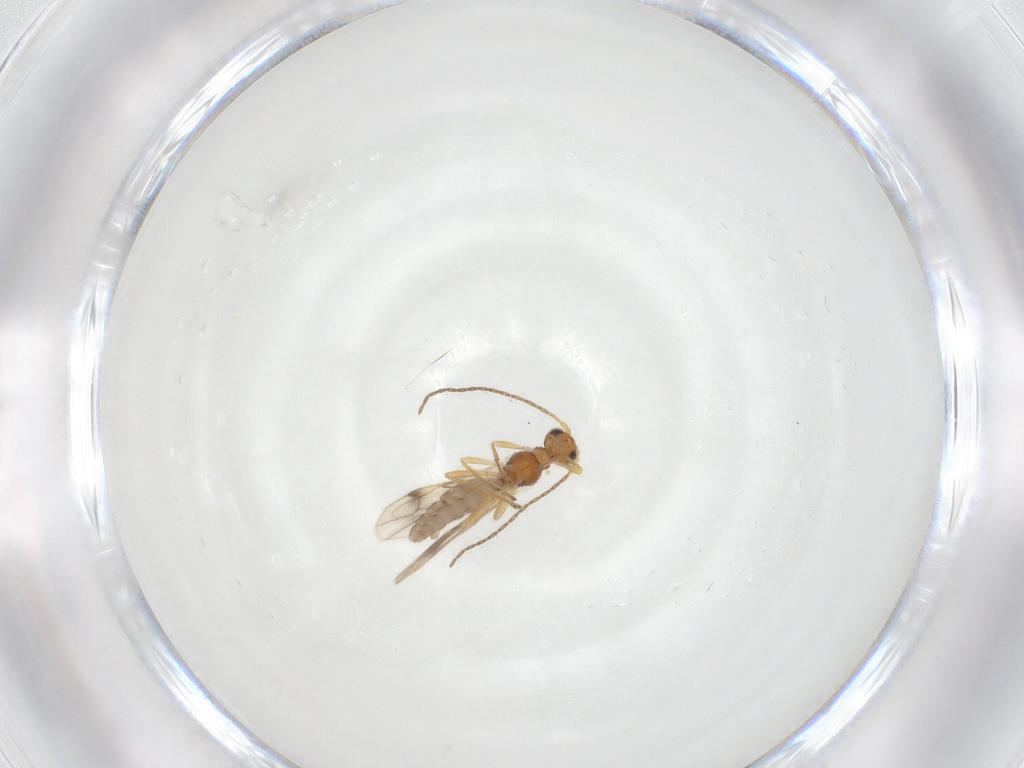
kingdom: Animalia
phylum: Arthropoda
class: Insecta
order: Hymenoptera
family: Braconidae
